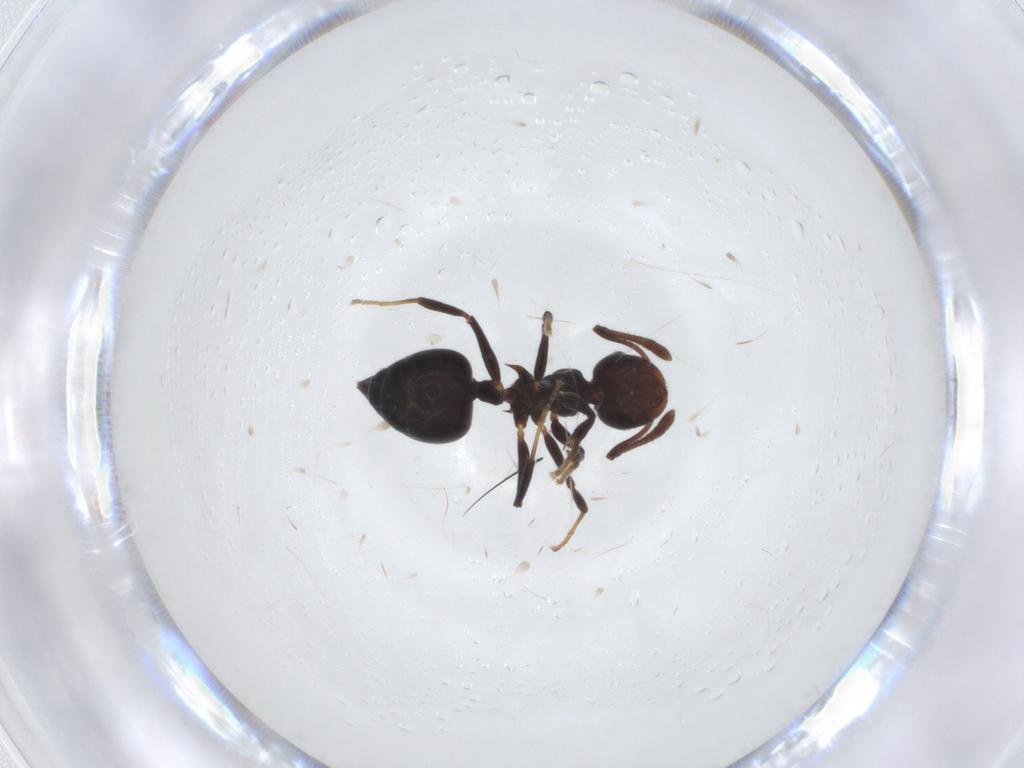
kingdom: Animalia
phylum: Arthropoda
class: Insecta
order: Hymenoptera
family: Formicidae
